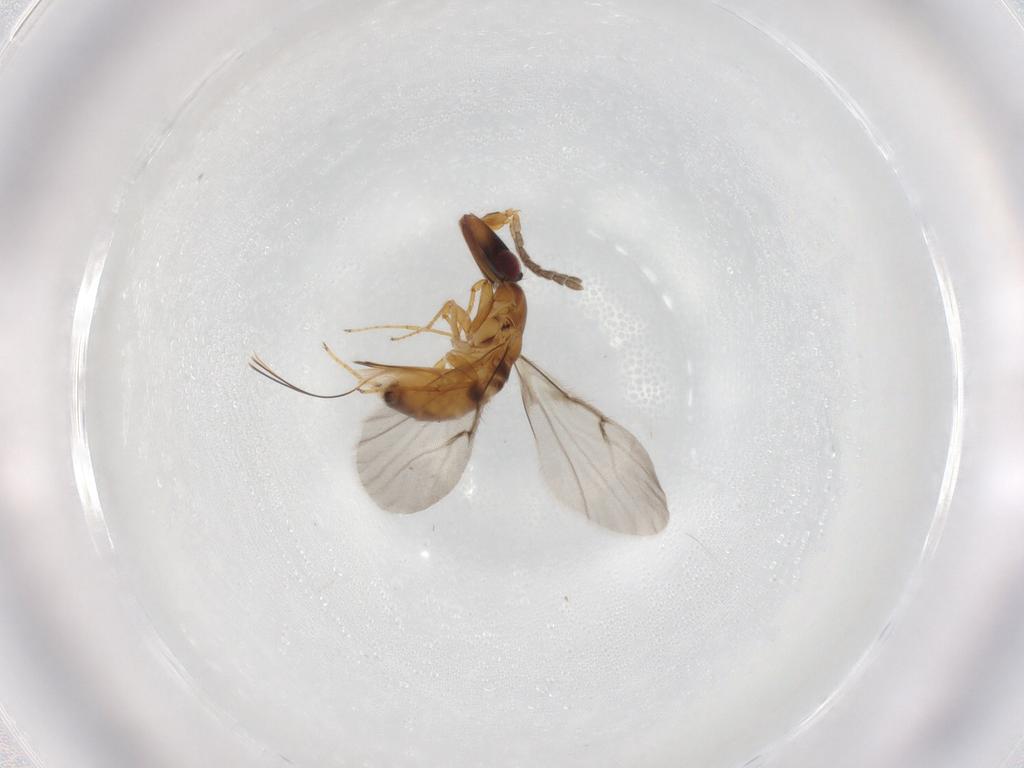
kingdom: Animalia
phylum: Arthropoda
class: Insecta
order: Hymenoptera
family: Agaonidae
